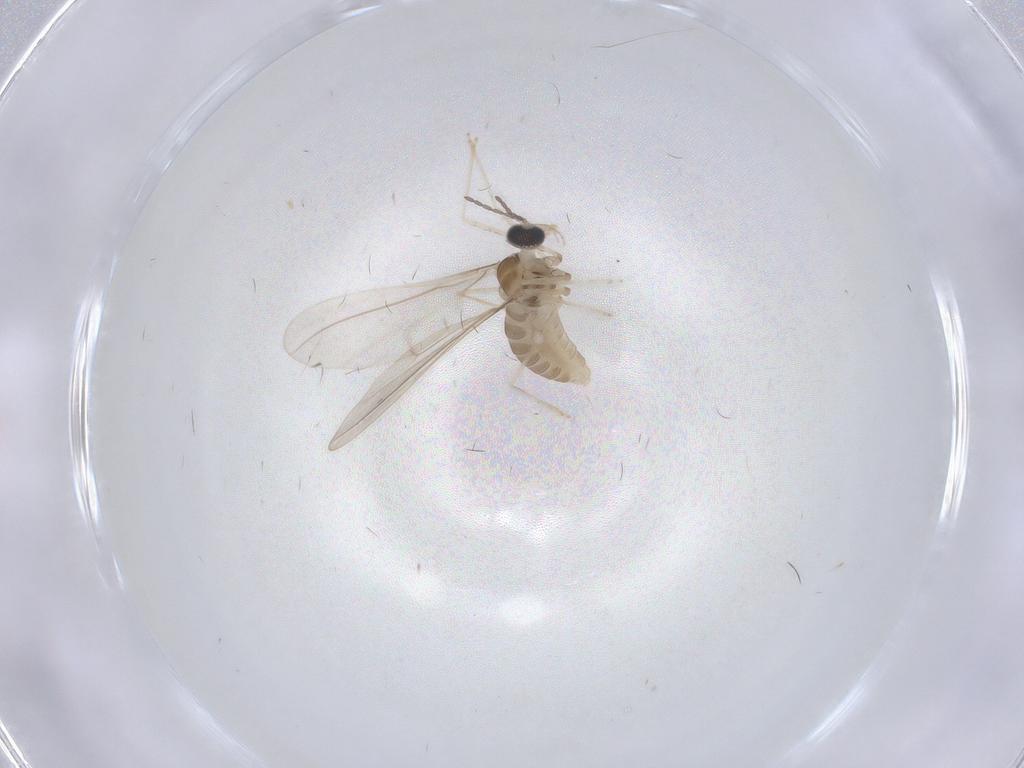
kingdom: Animalia
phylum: Arthropoda
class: Insecta
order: Diptera
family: Cecidomyiidae
